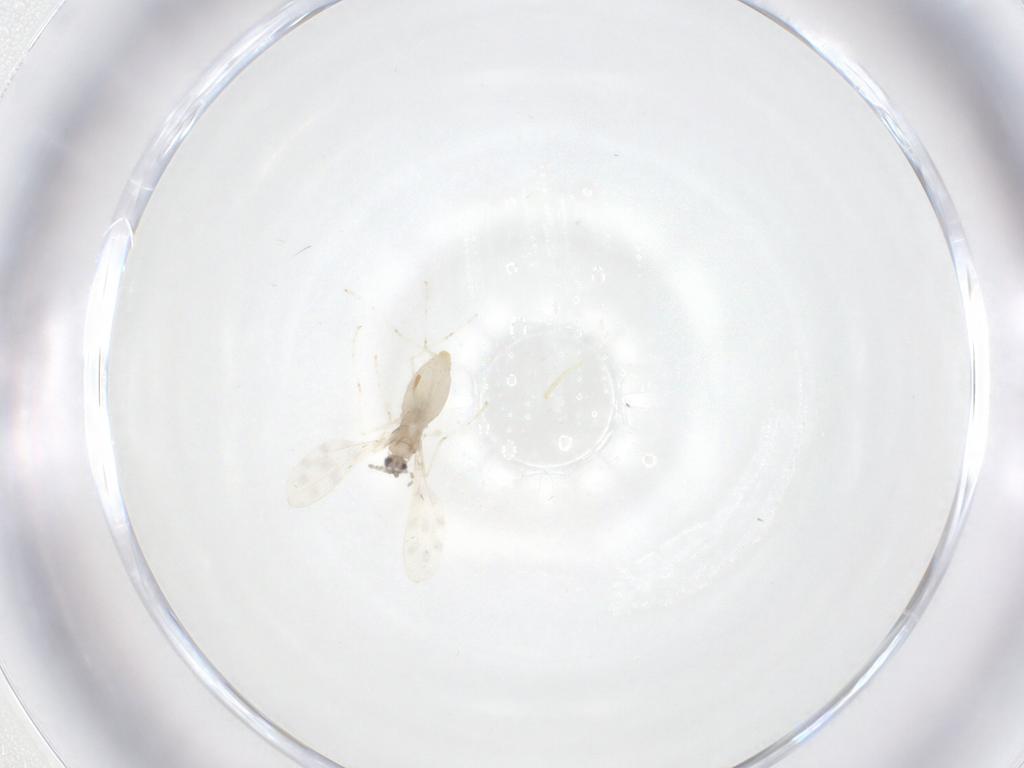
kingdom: Animalia
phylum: Arthropoda
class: Insecta
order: Diptera
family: Cecidomyiidae
